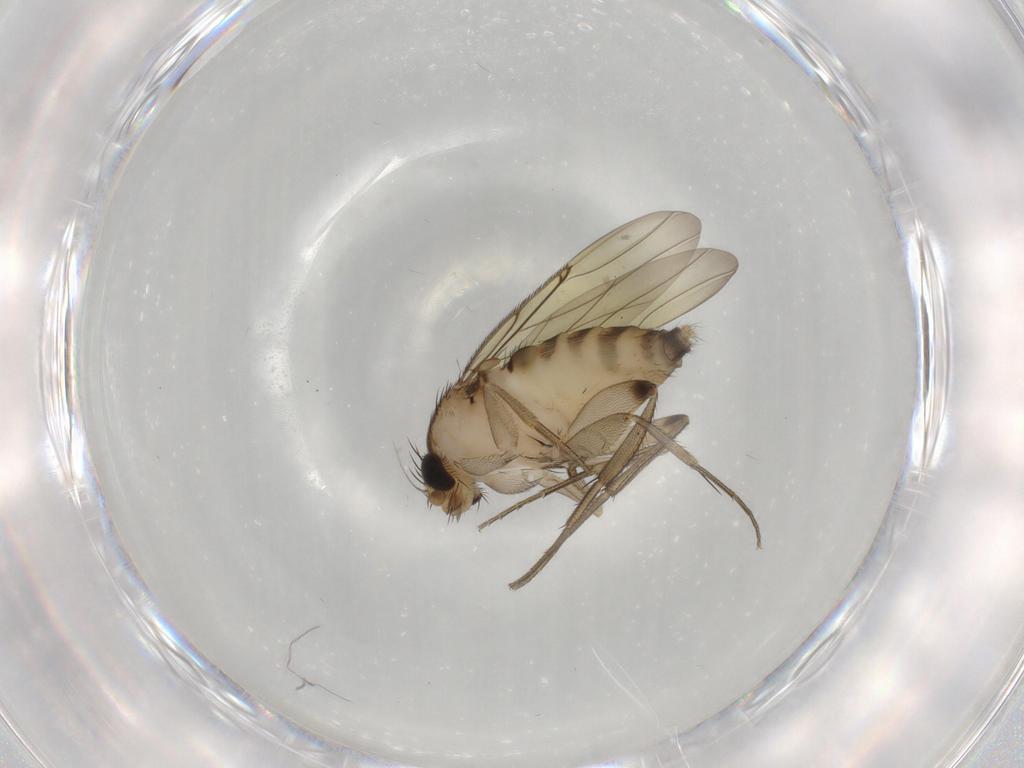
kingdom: Animalia
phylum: Arthropoda
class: Insecta
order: Diptera
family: Phoridae
